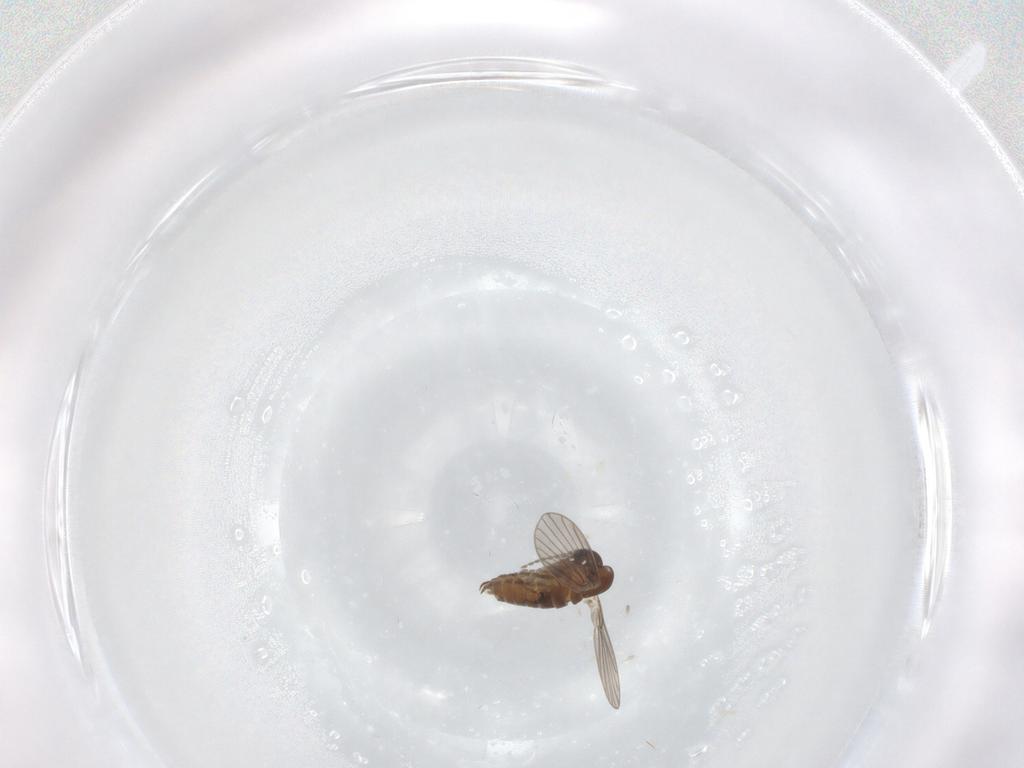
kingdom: Animalia
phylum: Arthropoda
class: Insecta
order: Diptera
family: Psychodidae
